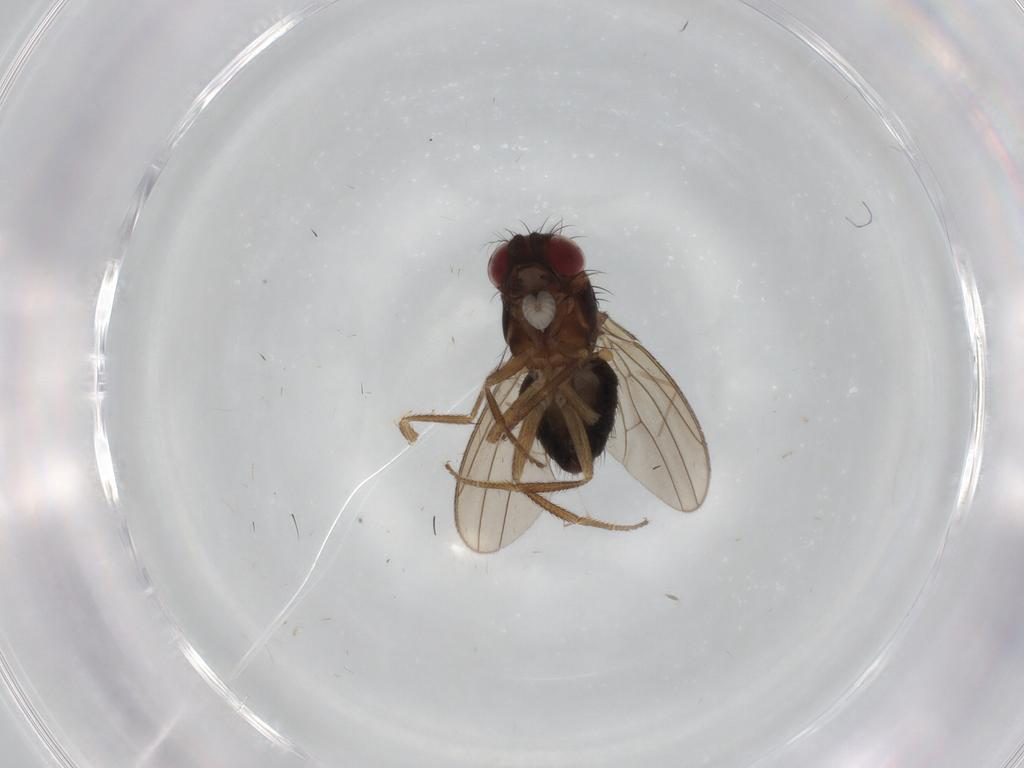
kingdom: Animalia
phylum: Arthropoda
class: Insecta
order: Diptera
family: Drosophilidae
